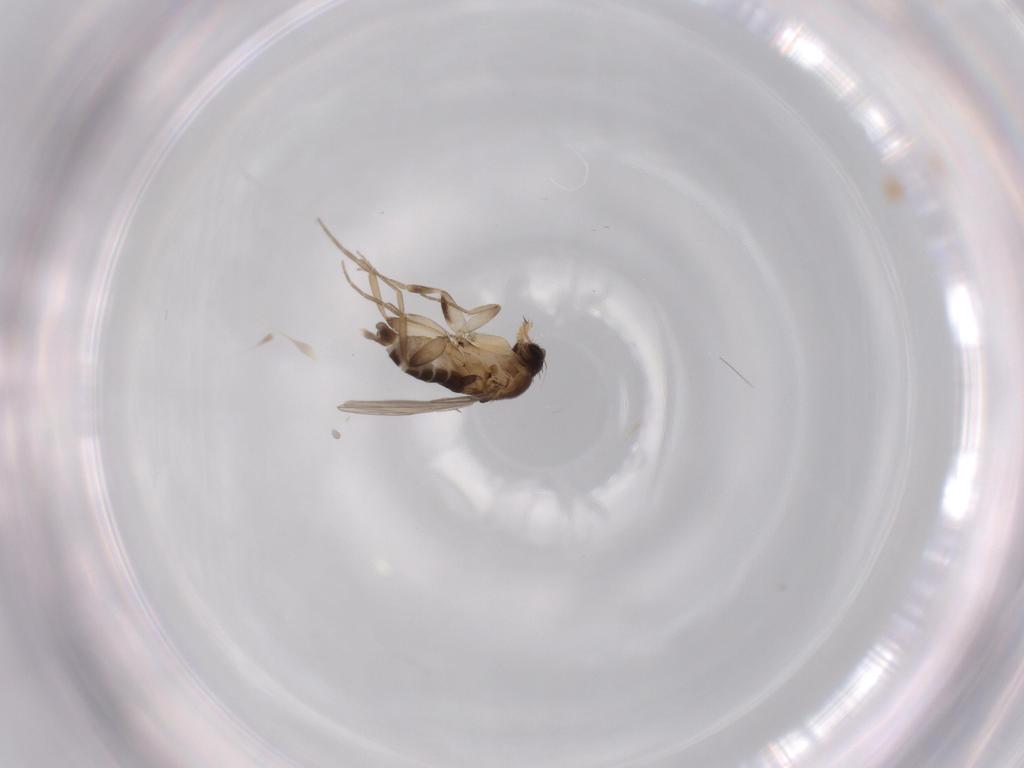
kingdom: Animalia
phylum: Arthropoda
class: Insecta
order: Diptera
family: Phoridae
